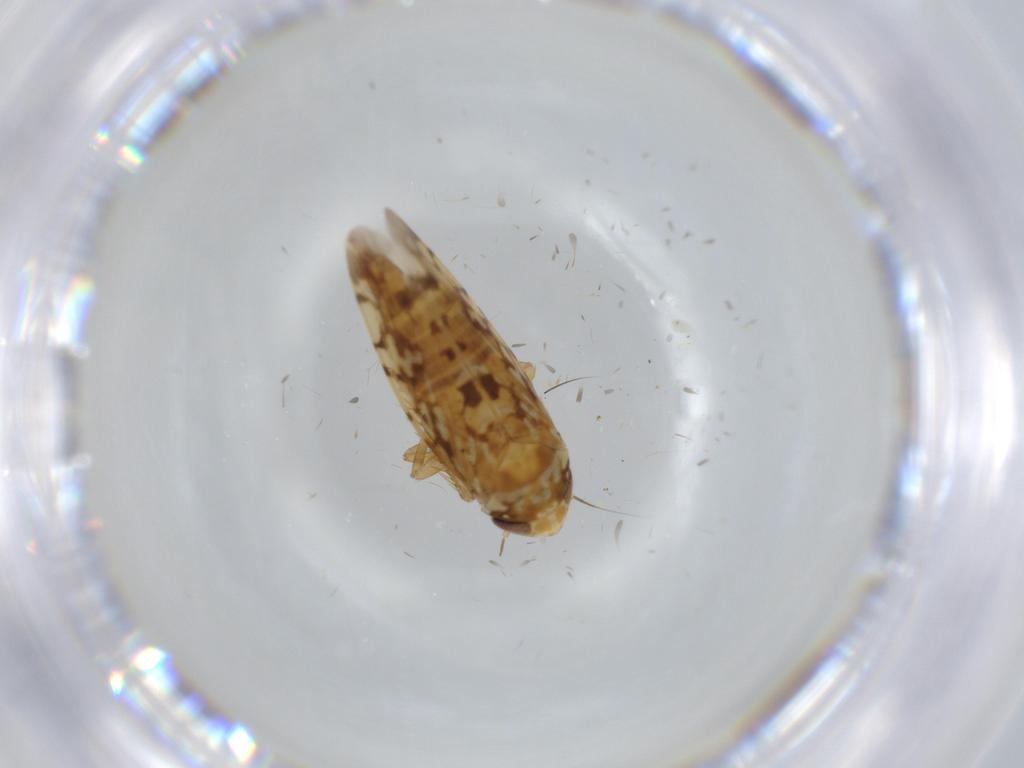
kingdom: Animalia
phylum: Arthropoda
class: Insecta
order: Hemiptera
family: Cicadellidae
